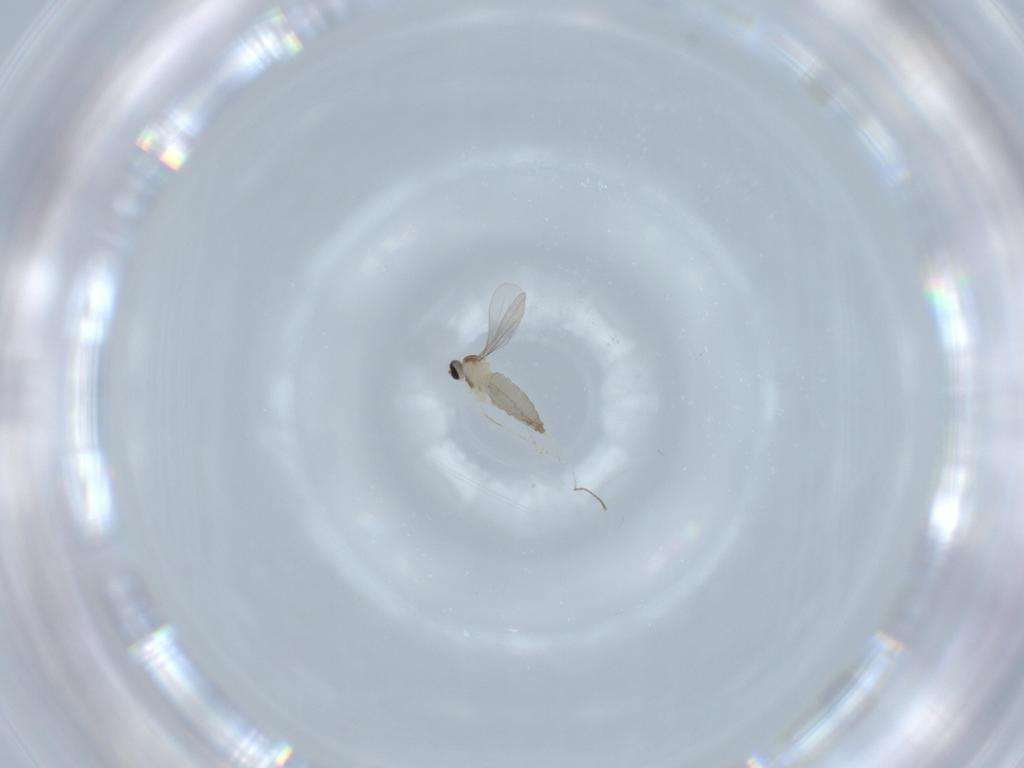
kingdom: Animalia
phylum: Arthropoda
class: Insecta
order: Diptera
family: Cecidomyiidae
